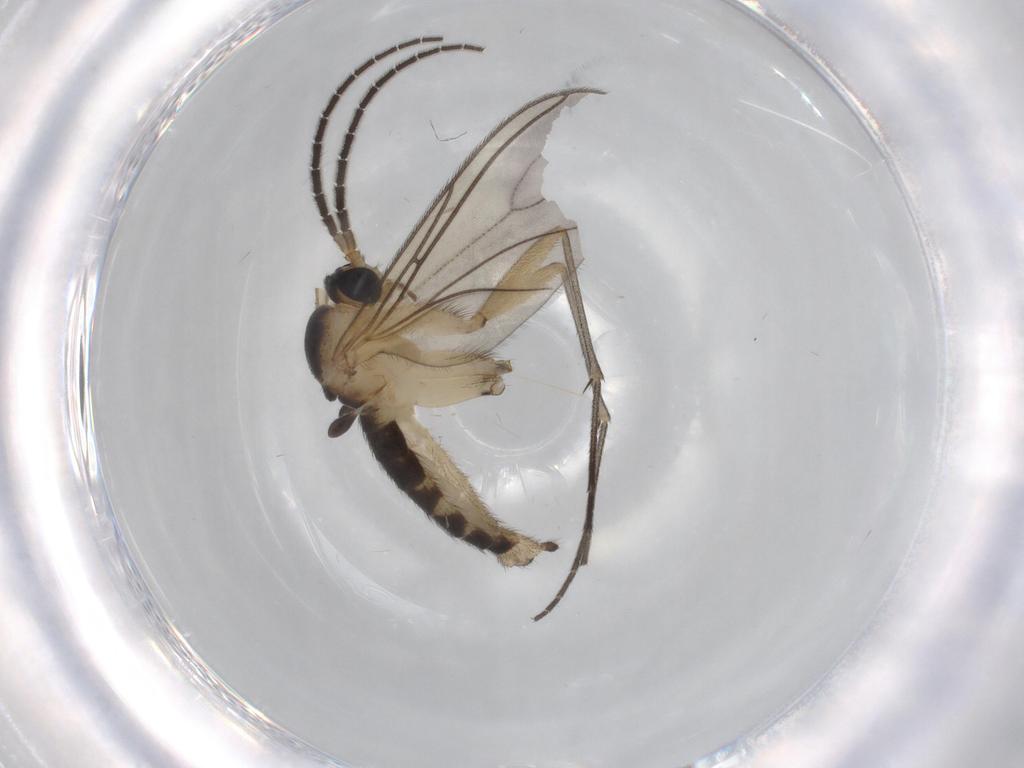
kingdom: Animalia
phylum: Arthropoda
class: Insecta
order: Diptera
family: Sciaridae
